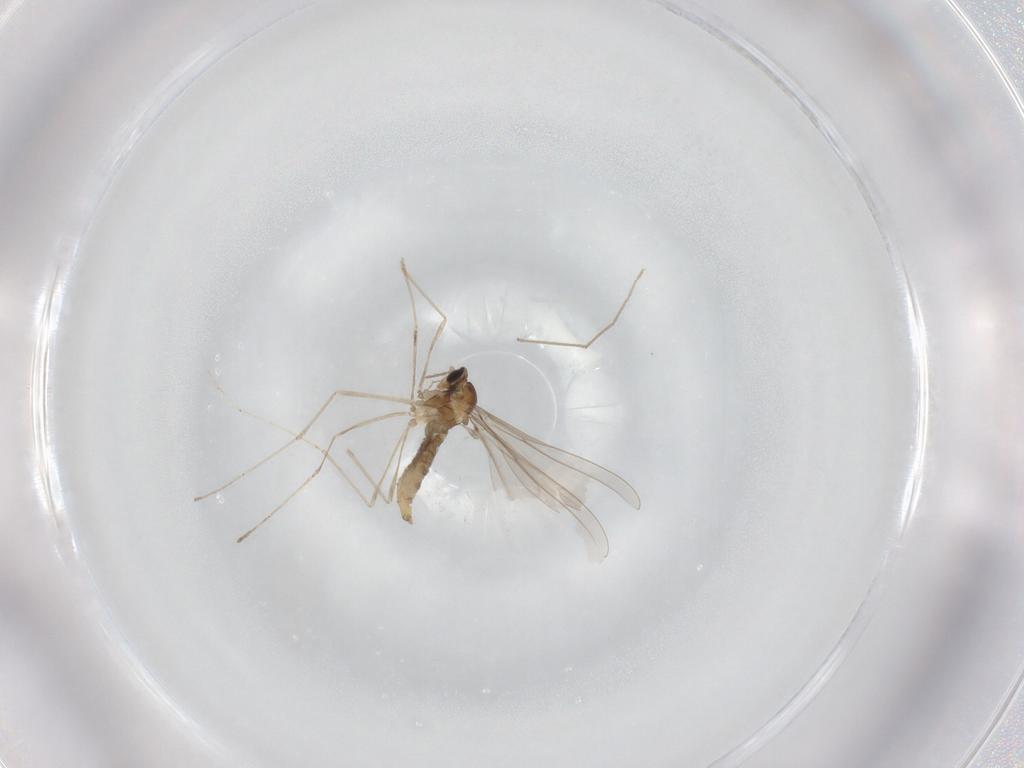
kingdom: Animalia
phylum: Arthropoda
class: Insecta
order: Diptera
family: Cecidomyiidae
